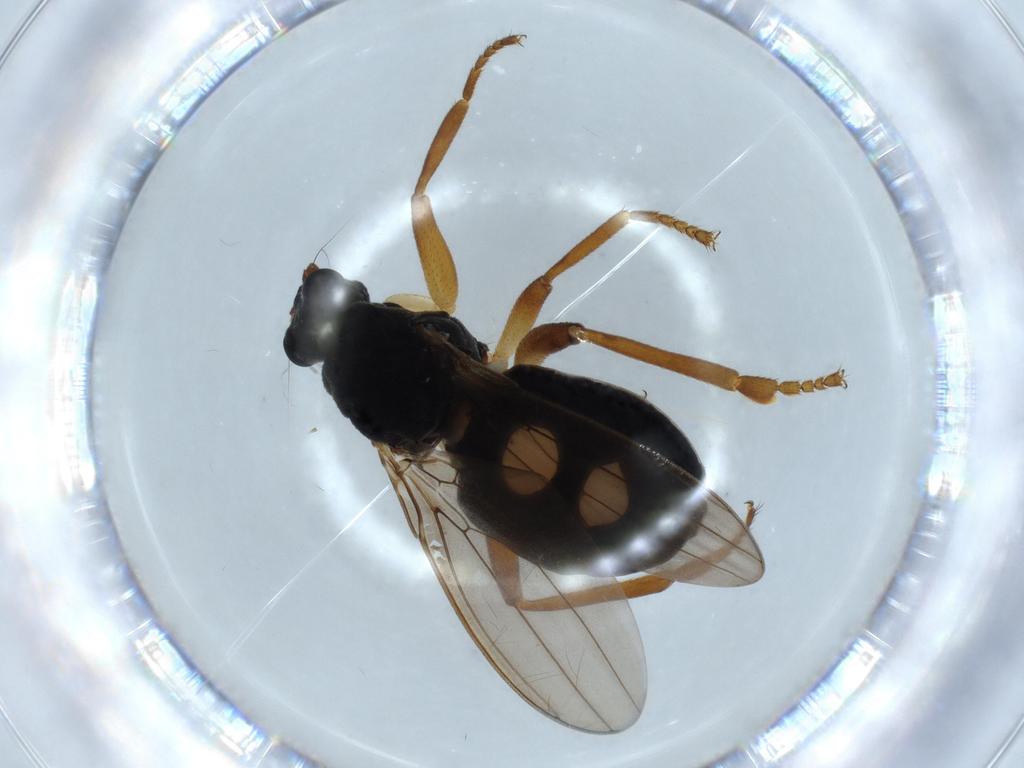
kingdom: Animalia
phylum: Arthropoda
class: Insecta
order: Diptera
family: Sphaeroceridae
